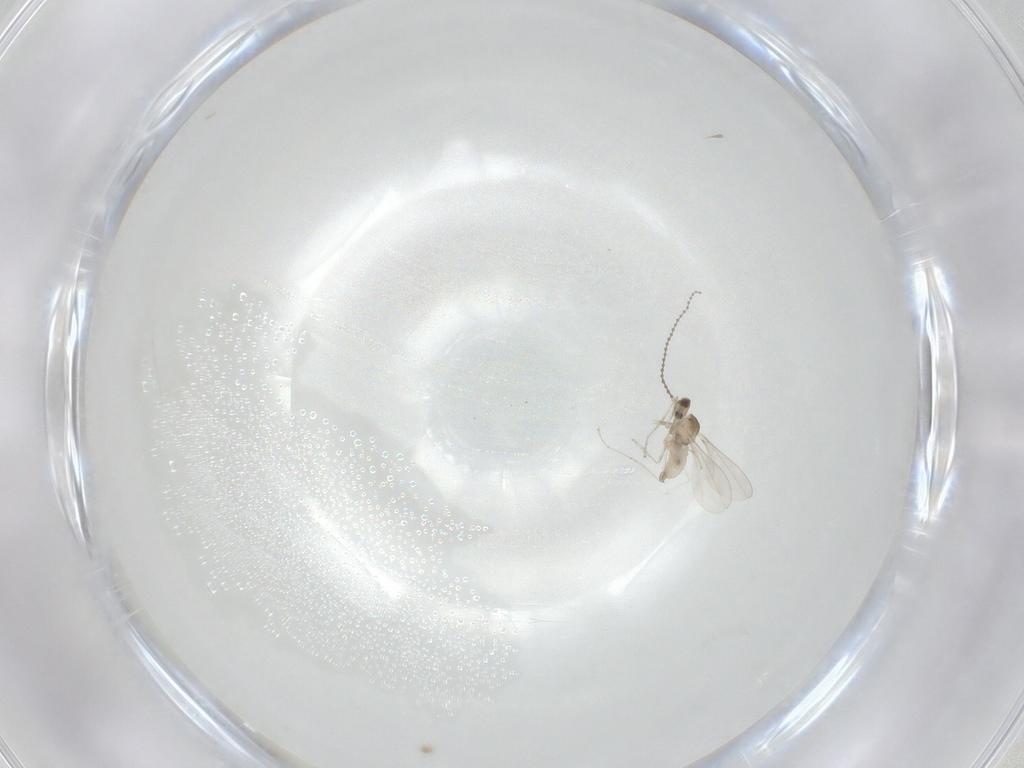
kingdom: Animalia
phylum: Arthropoda
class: Insecta
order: Diptera
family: Cecidomyiidae
